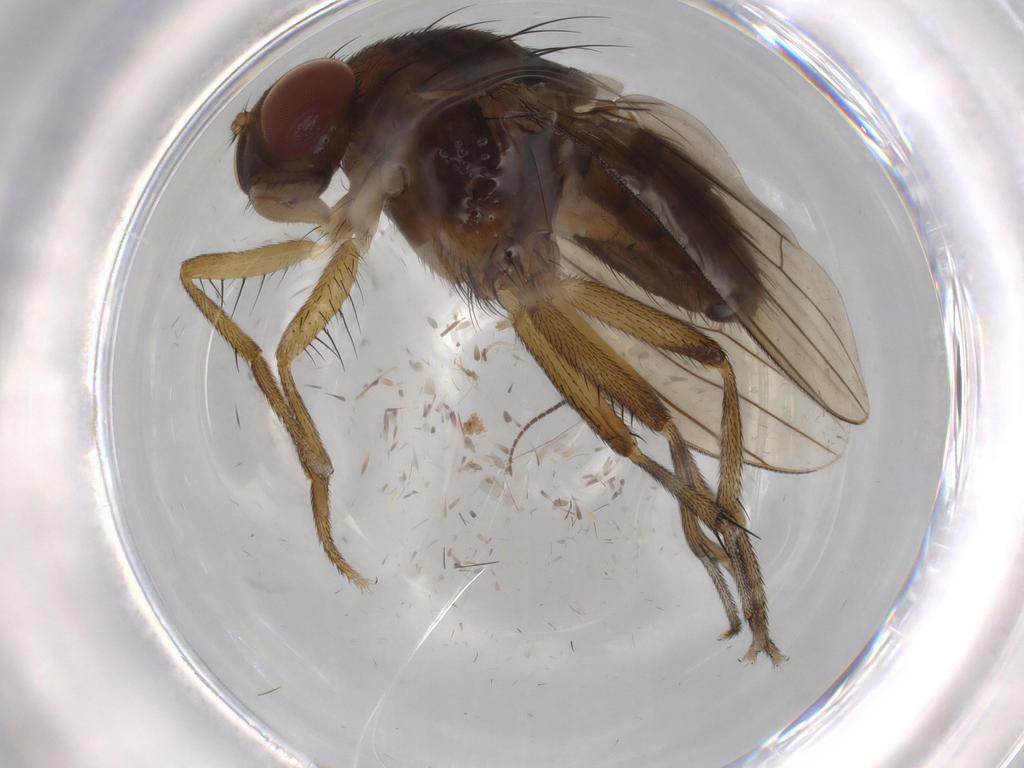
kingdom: Animalia
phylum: Arthropoda
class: Insecta
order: Diptera
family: Sciaridae
